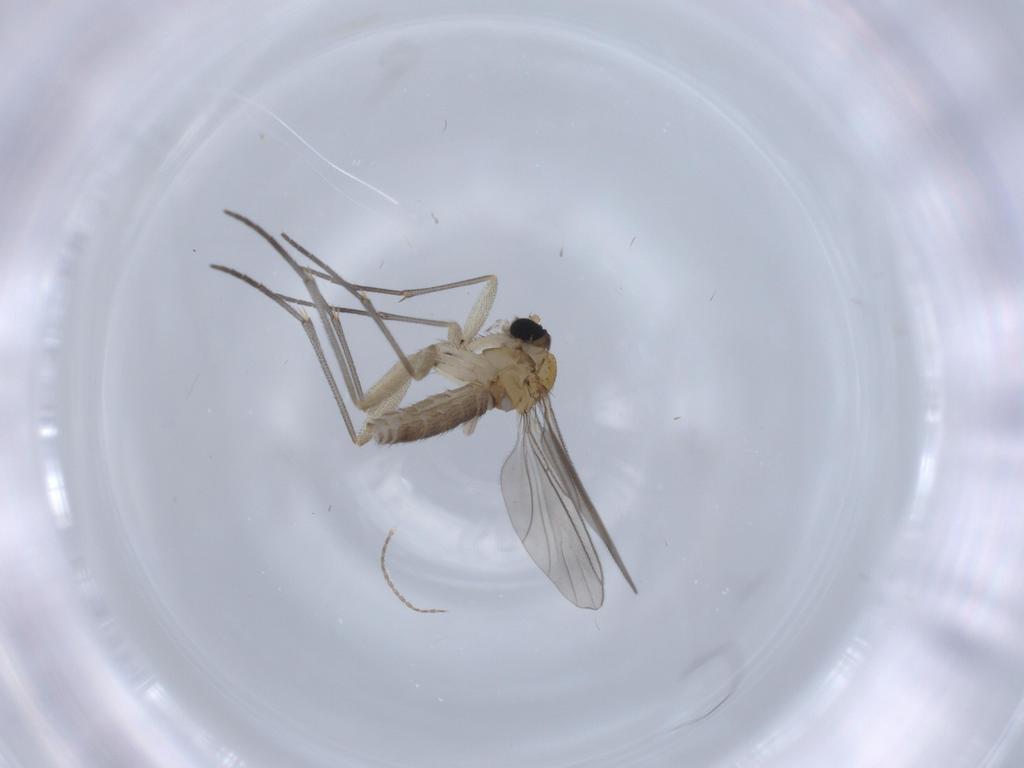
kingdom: Animalia
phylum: Arthropoda
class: Insecta
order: Diptera
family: Sciaridae
